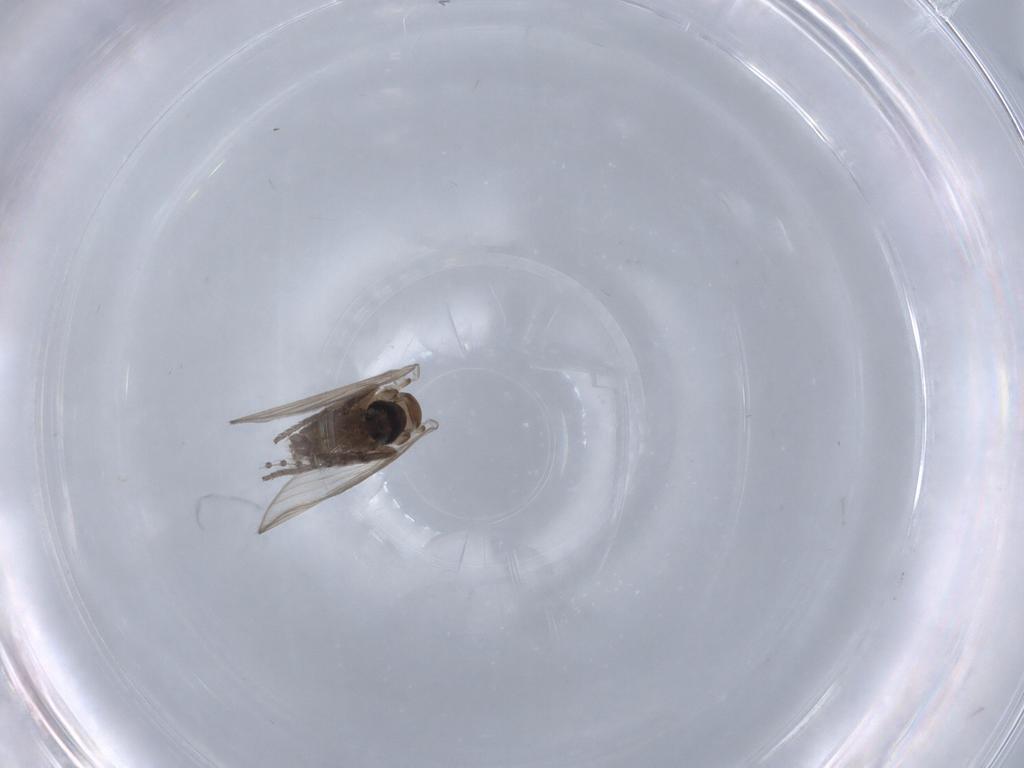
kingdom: Animalia
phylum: Arthropoda
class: Insecta
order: Diptera
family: Psychodidae
